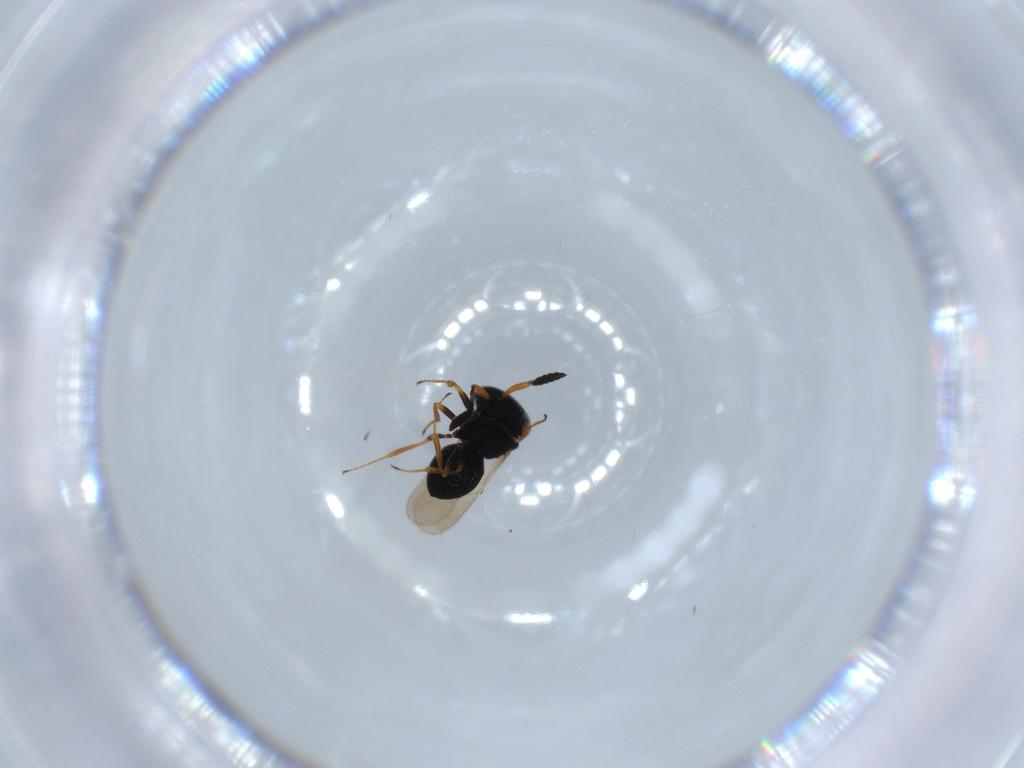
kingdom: Animalia
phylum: Arthropoda
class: Insecta
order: Hymenoptera
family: Scelionidae
